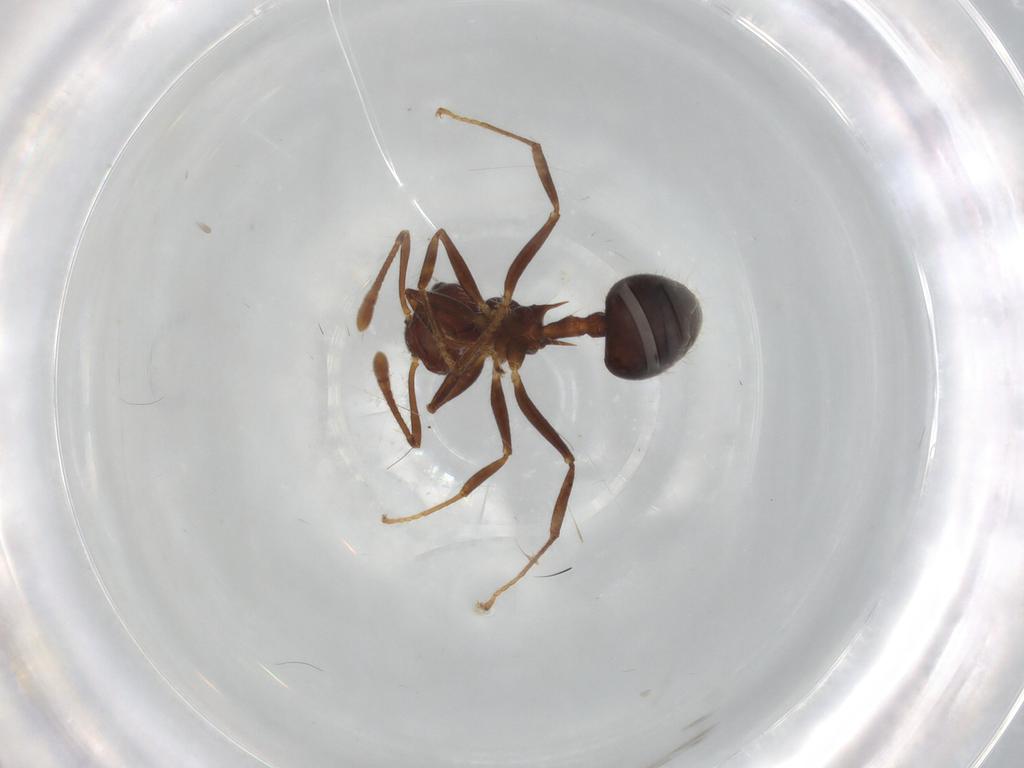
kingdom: Animalia
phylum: Arthropoda
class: Insecta
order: Hymenoptera
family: Formicidae
